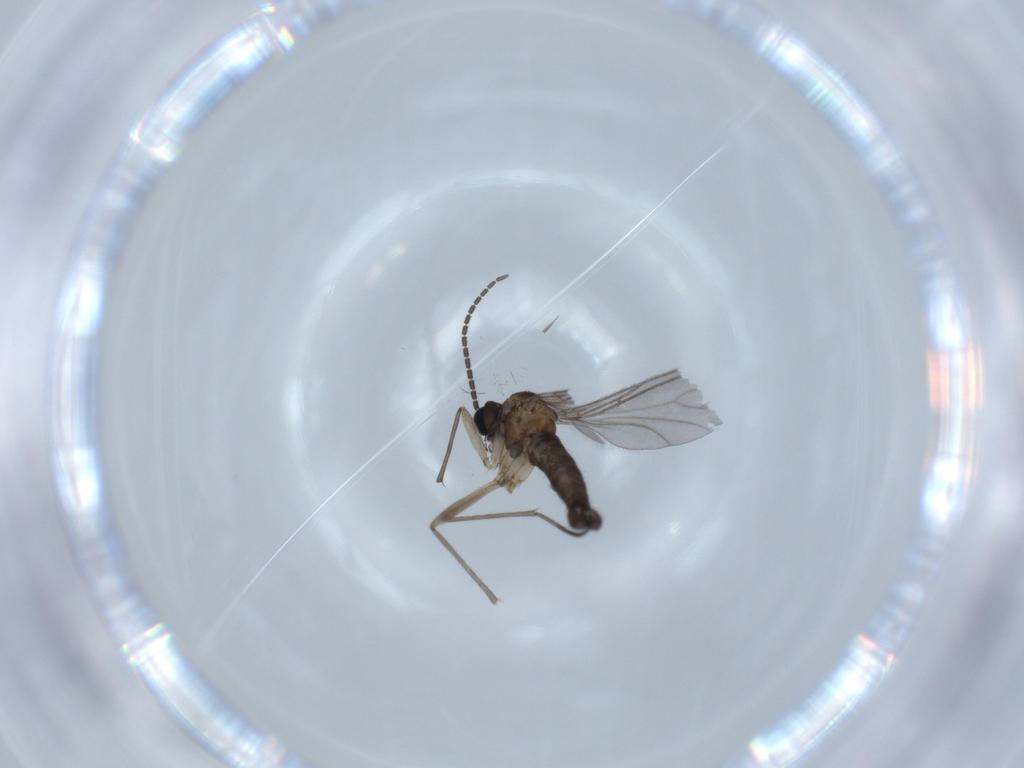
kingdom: Animalia
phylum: Arthropoda
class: Insecta
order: Diptera
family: Sciaridae
